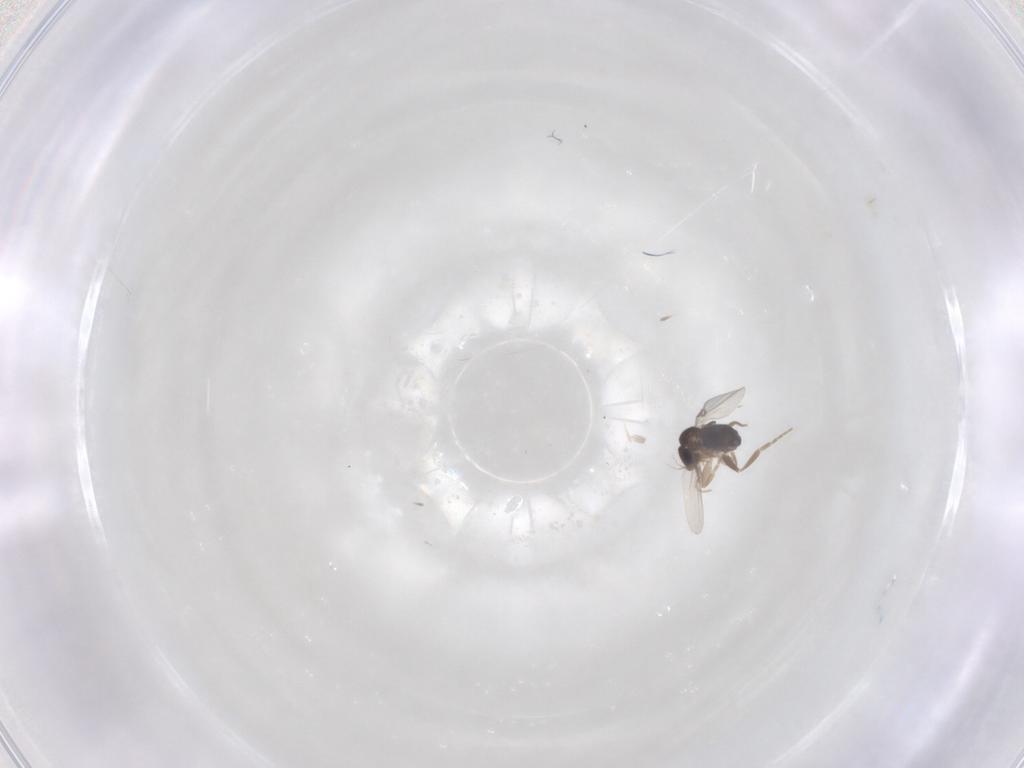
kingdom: Animalia
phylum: Arthropoda
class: Insecta
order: Diptera
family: Phoridae
